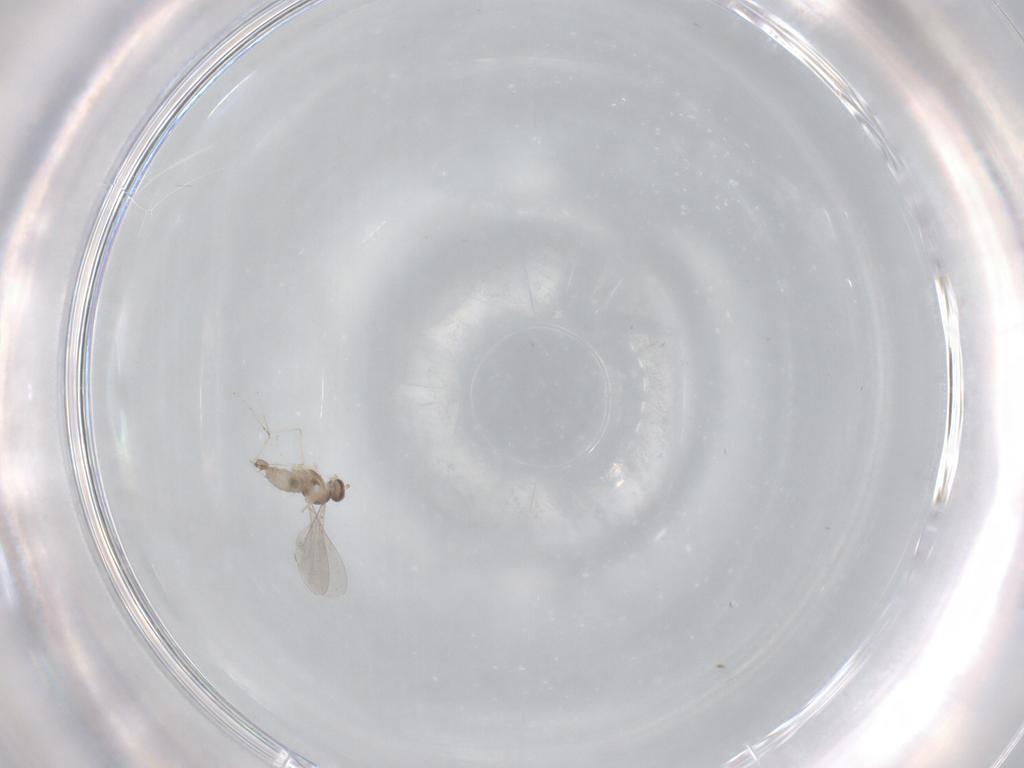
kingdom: Animalia
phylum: Arthropoda
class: Insecta
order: Diptera
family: Cecidomyiidae
